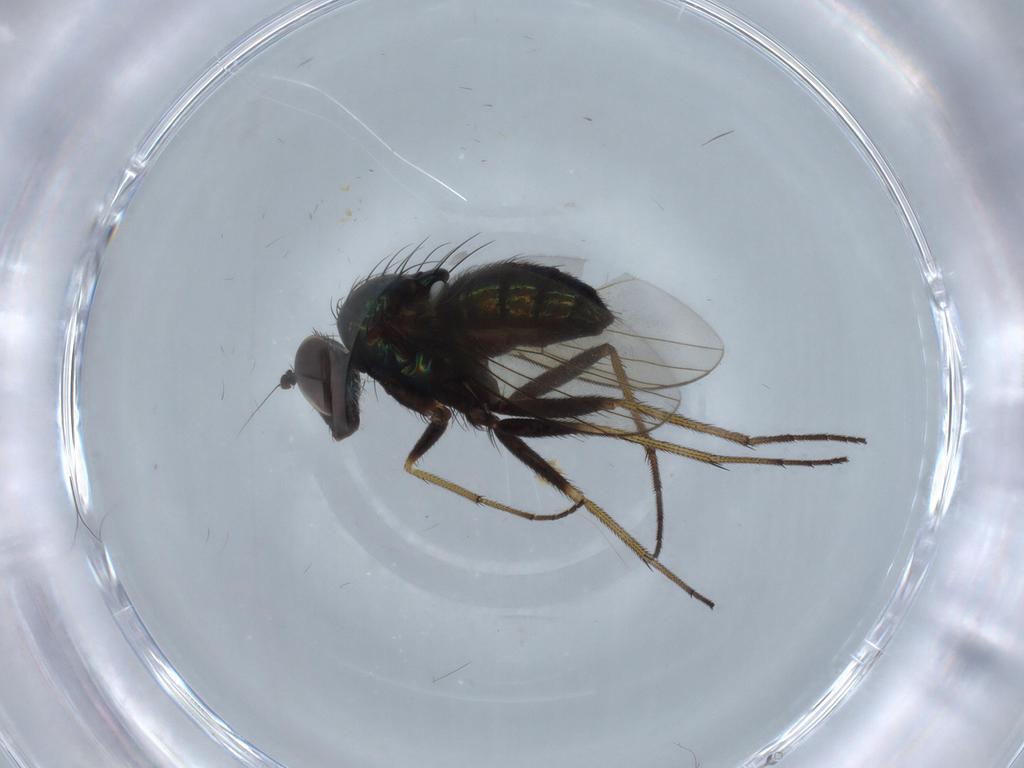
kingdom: Animalia
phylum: Arthropoda
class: Insecta
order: Diptera
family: Dolichopodidae
